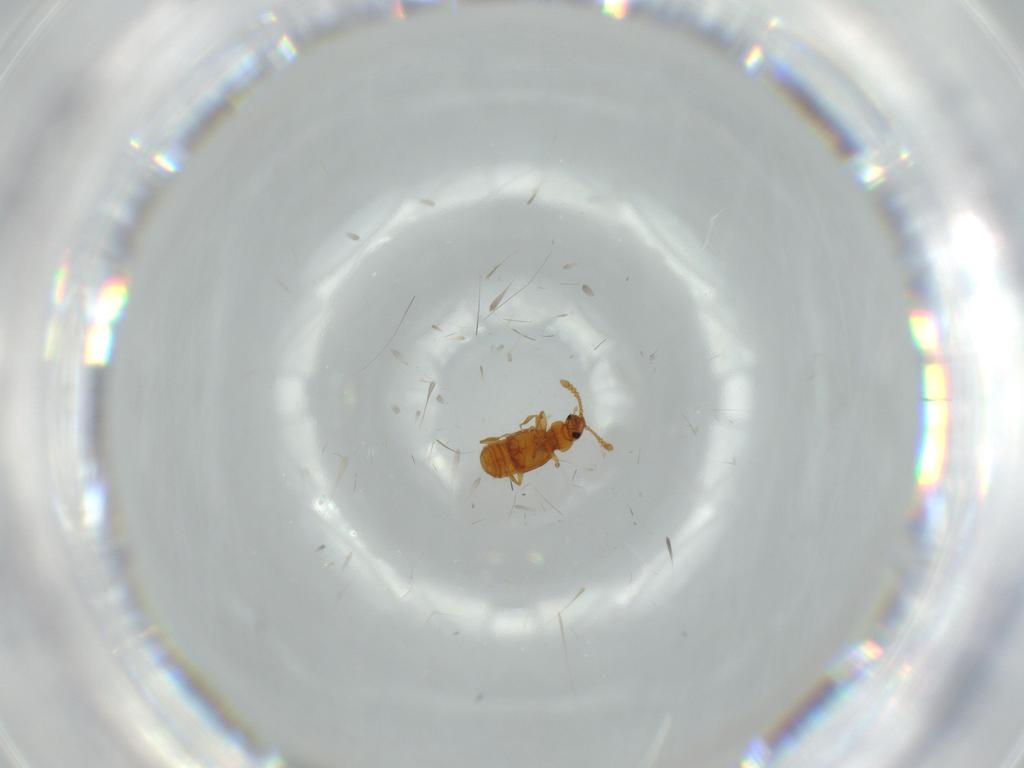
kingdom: Animalia
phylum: Arthropoda
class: Insecta
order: Coleoptera
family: Staphylinidae
